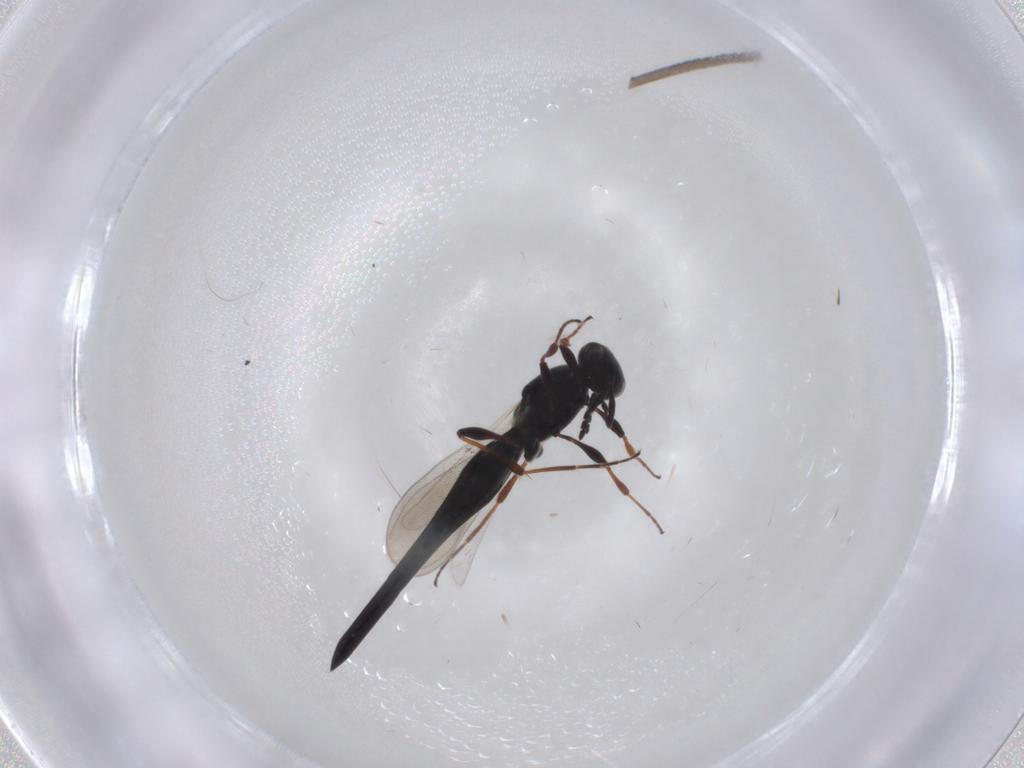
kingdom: Animalia
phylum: Arthropoda
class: Insecta
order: Hymenoptera
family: Platygastridae
